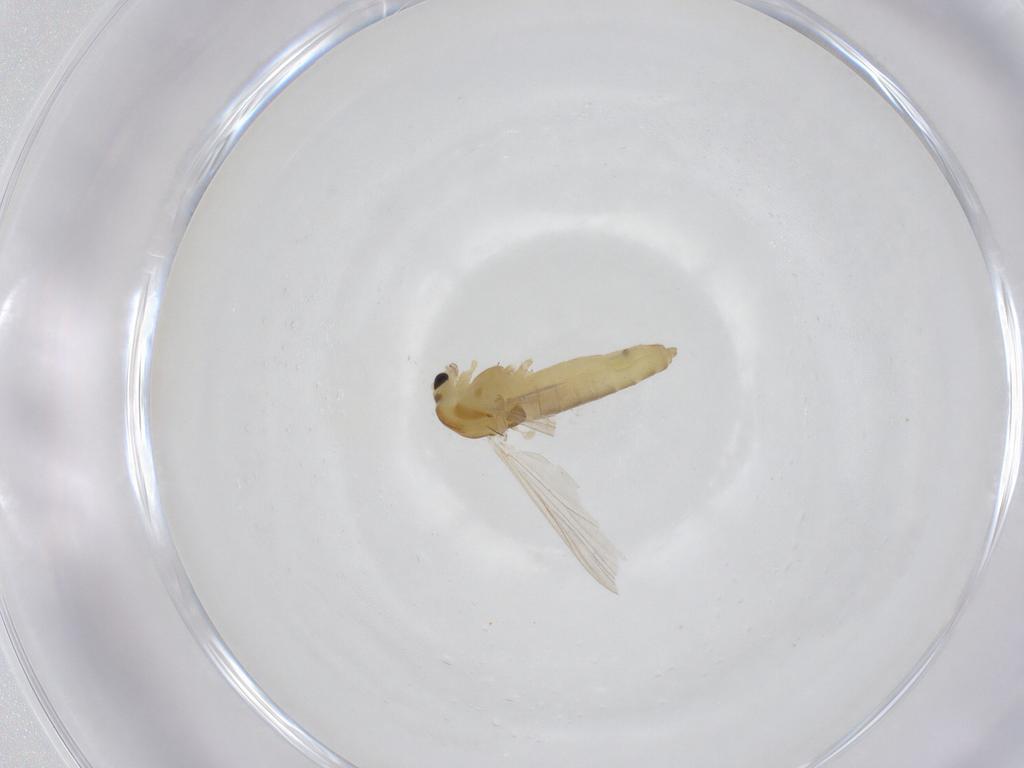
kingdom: Animalia
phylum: Arthropoda
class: Insecta
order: Diptera
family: Chironomidae
